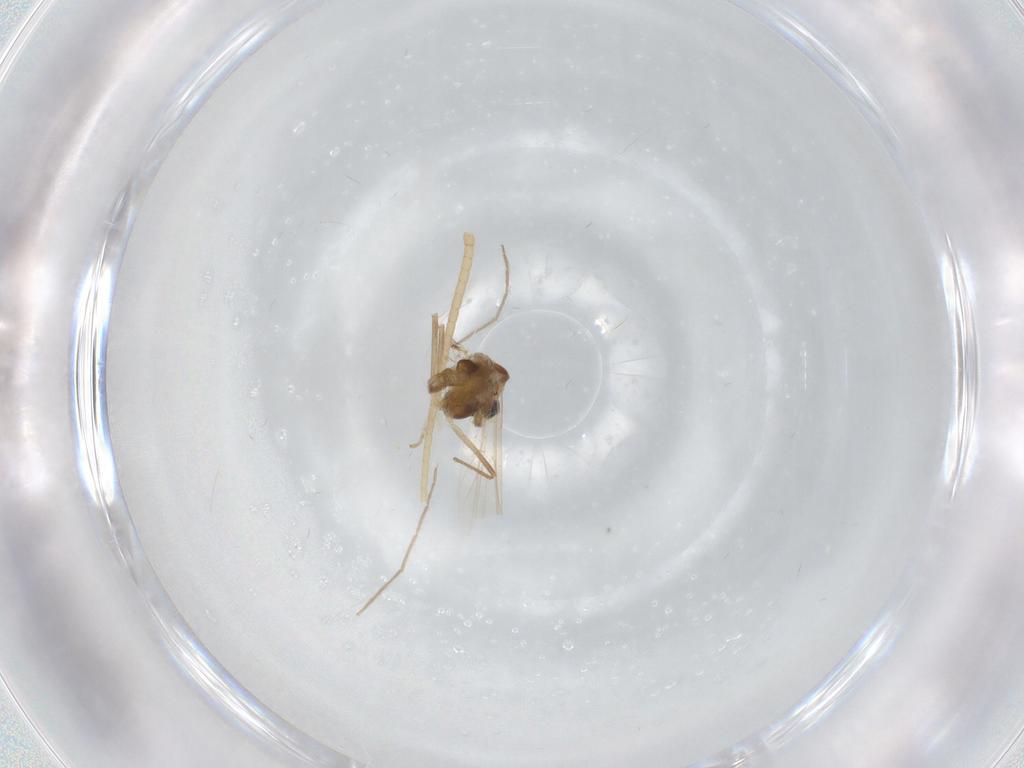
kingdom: Animalia
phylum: Arthropoda
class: Insecta
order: Diptera
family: Psychodidae
